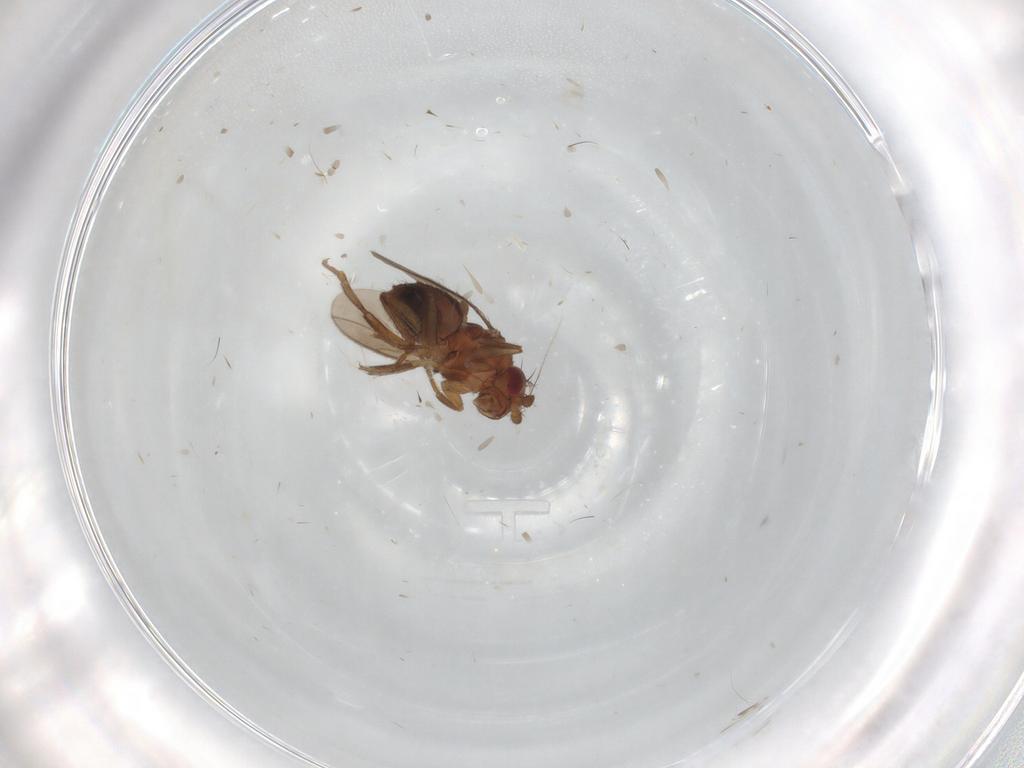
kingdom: Animalia
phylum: Arthropoda
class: Insecta
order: Diptera
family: Sphaeroceridae
